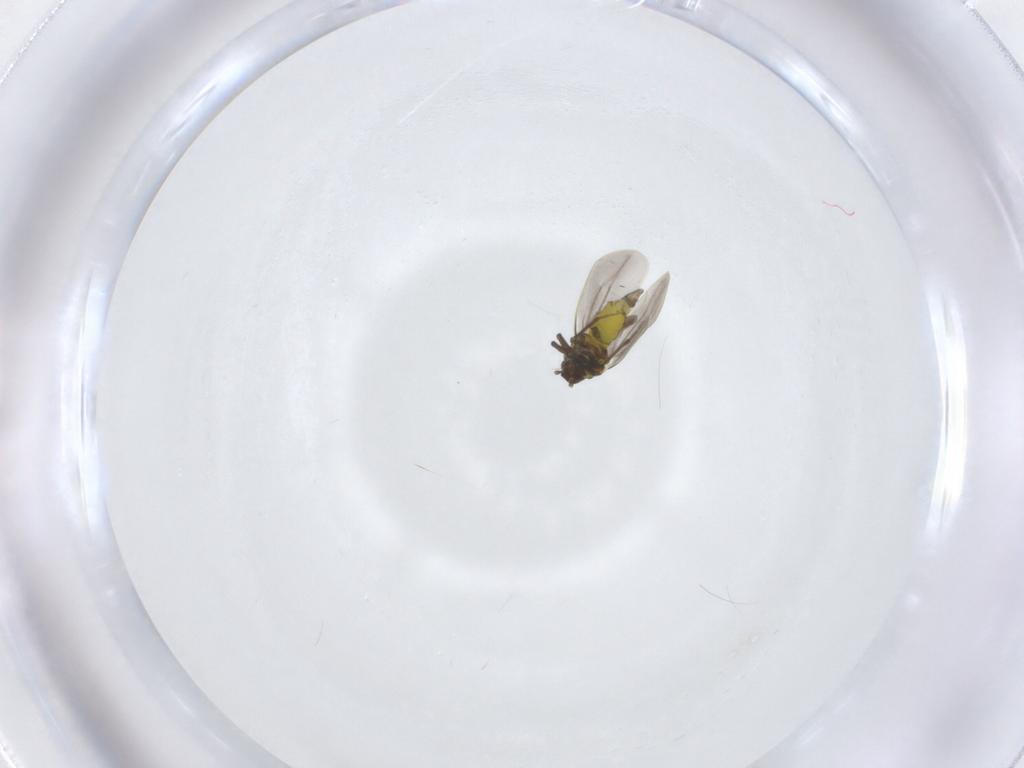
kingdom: Animalia
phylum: Arthropoda
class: Insecta
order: Hemiptera
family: Aleyrodidae
